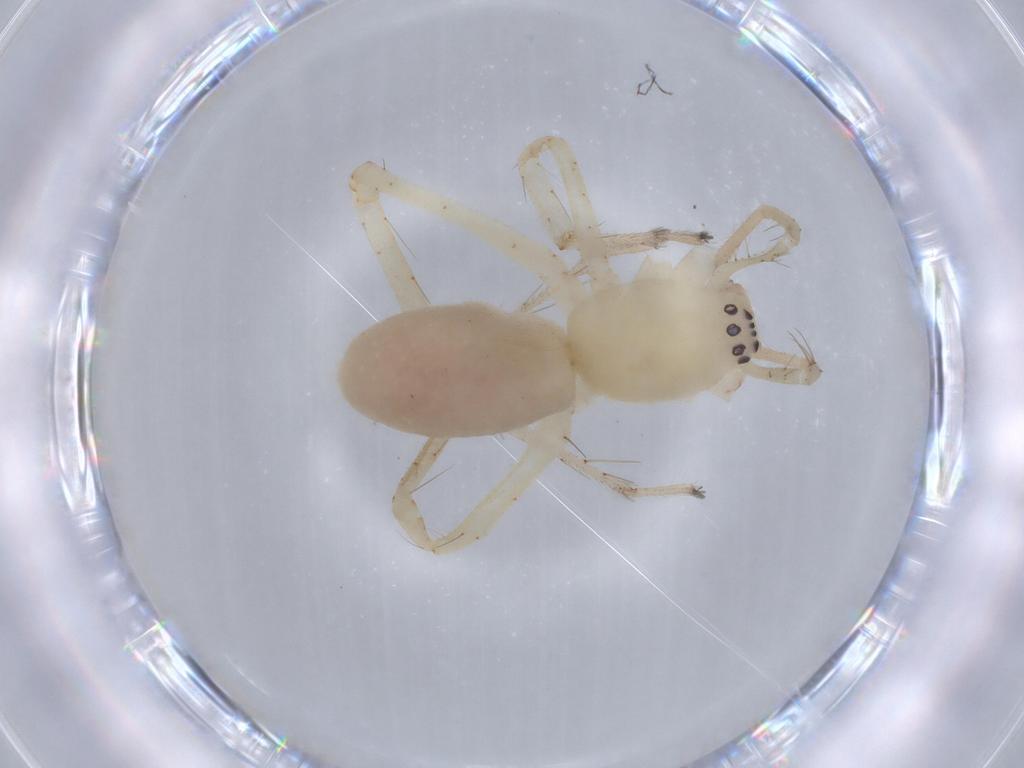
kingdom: Animalia
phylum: Arthropoda
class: Arachnida
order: Araneae
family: Anyphaenidae
